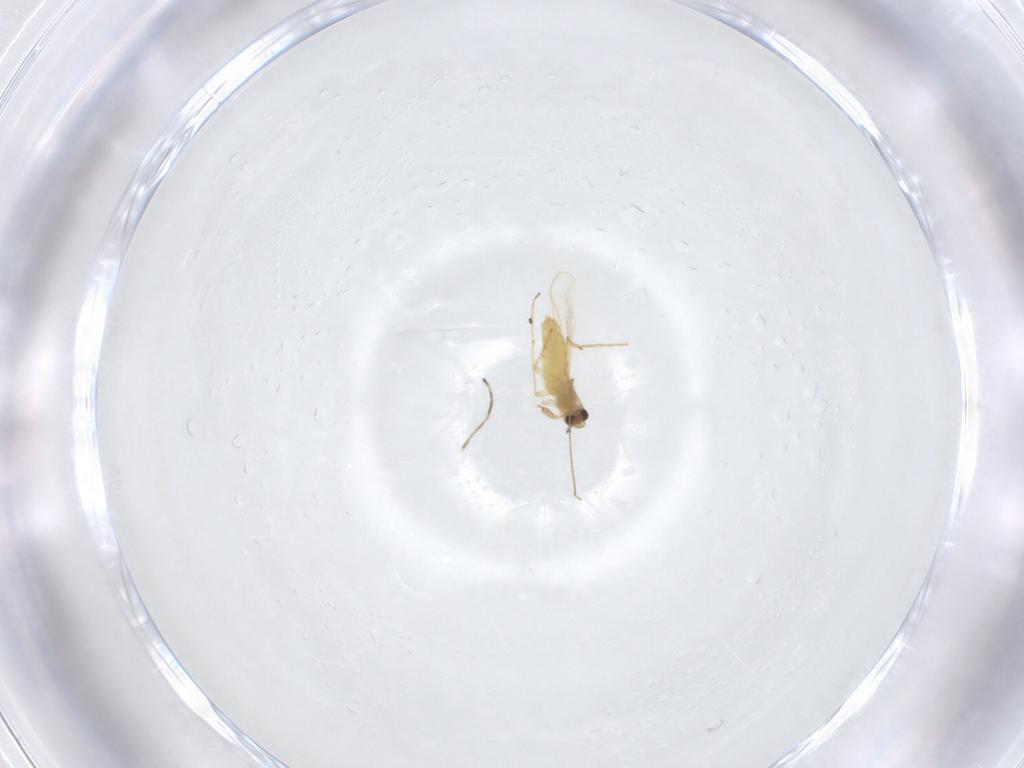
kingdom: Animalia
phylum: Arthropoda
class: Insecta
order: Diptera
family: Chironomidae
